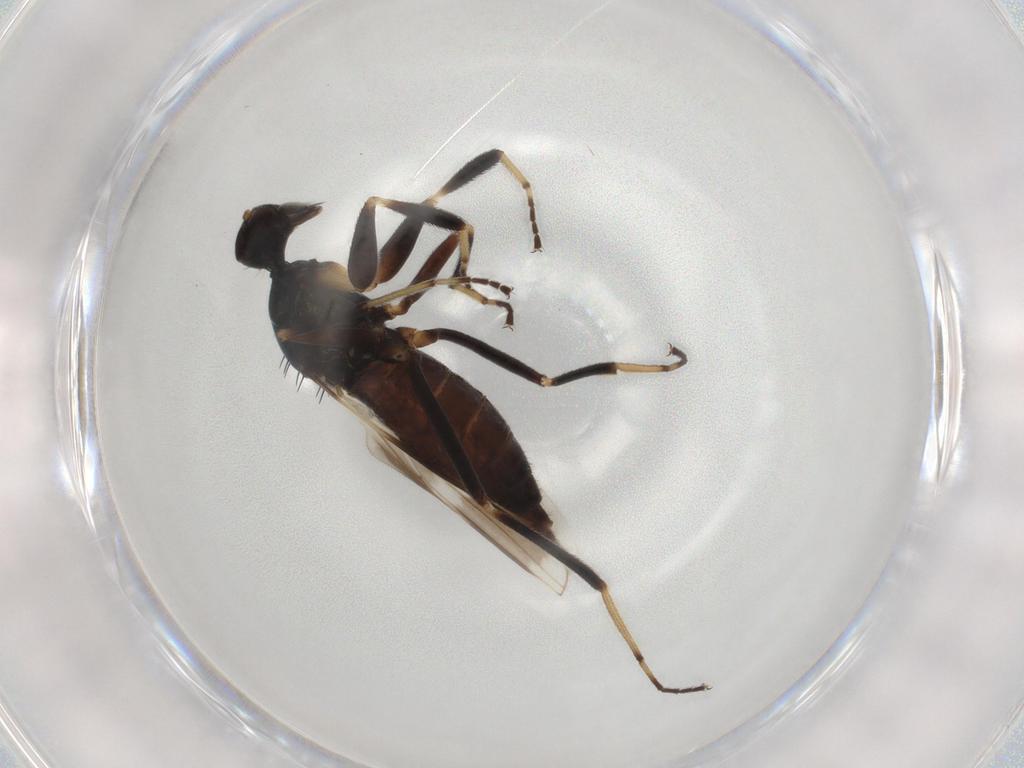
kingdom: Animalia
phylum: Arthropoda
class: Insecta
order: Diptera
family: Hybotidae
